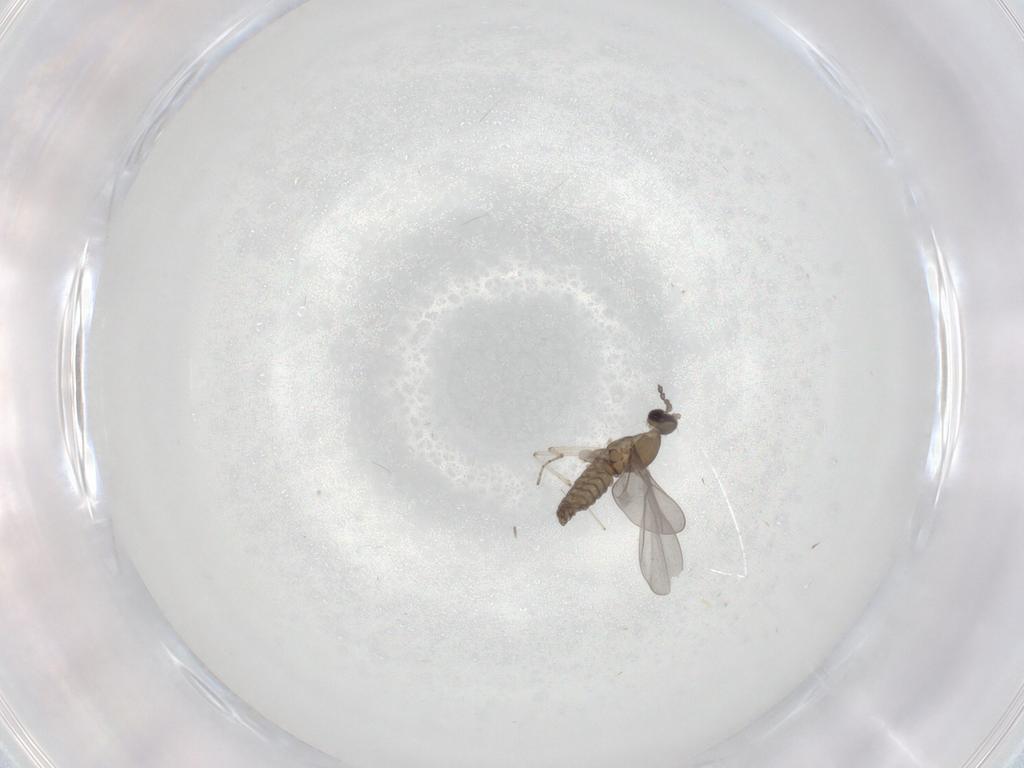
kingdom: Animalia
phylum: Arthropoda
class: Insecta
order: Diptera
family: Cecidomyiidae
